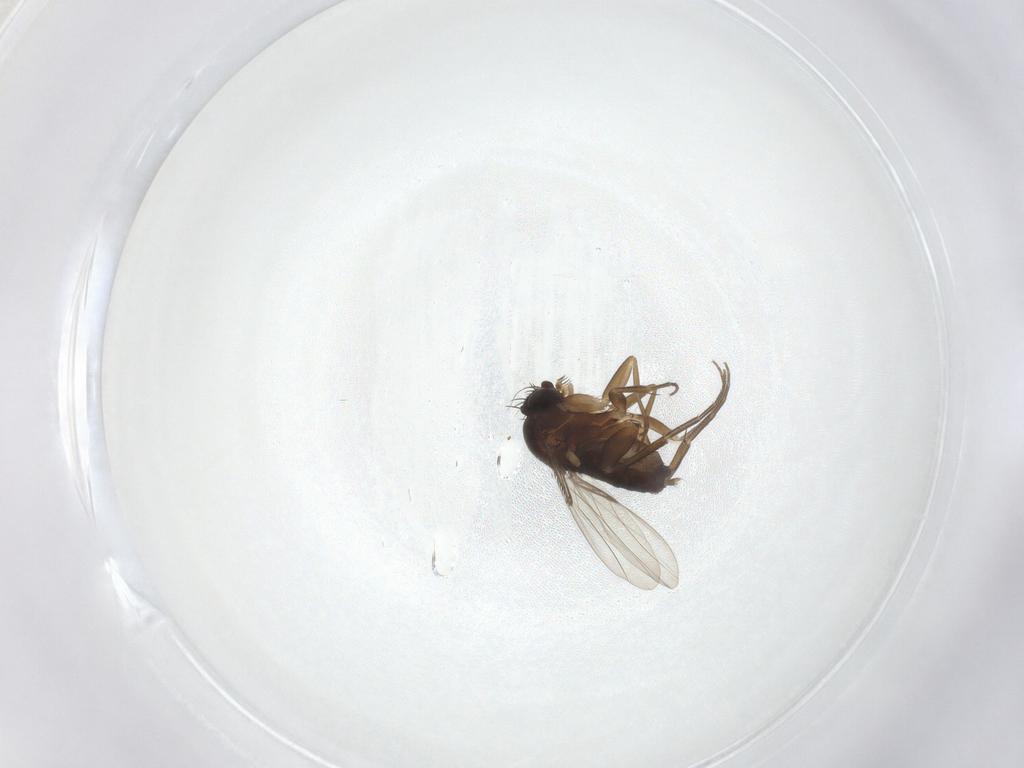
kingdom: Animalia
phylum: Arthropoda
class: Insecta
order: Diptera
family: Phoridae
